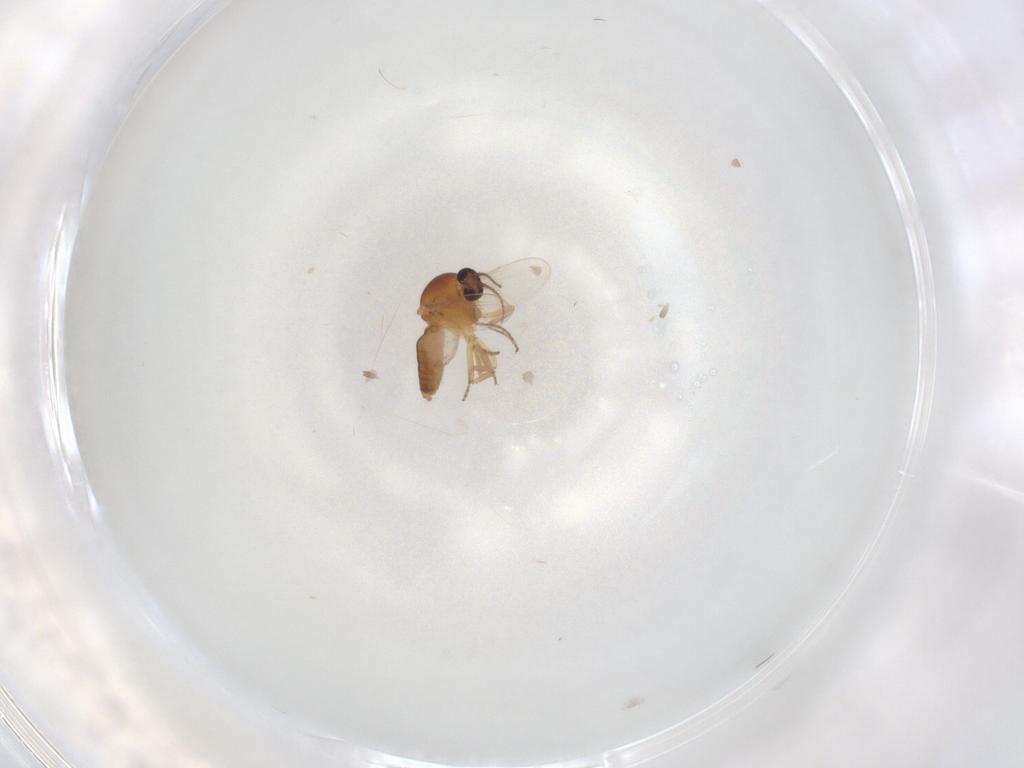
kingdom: Animalia
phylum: Arthropoda
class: Insecta
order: Diptera
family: Ceratopogonidae
